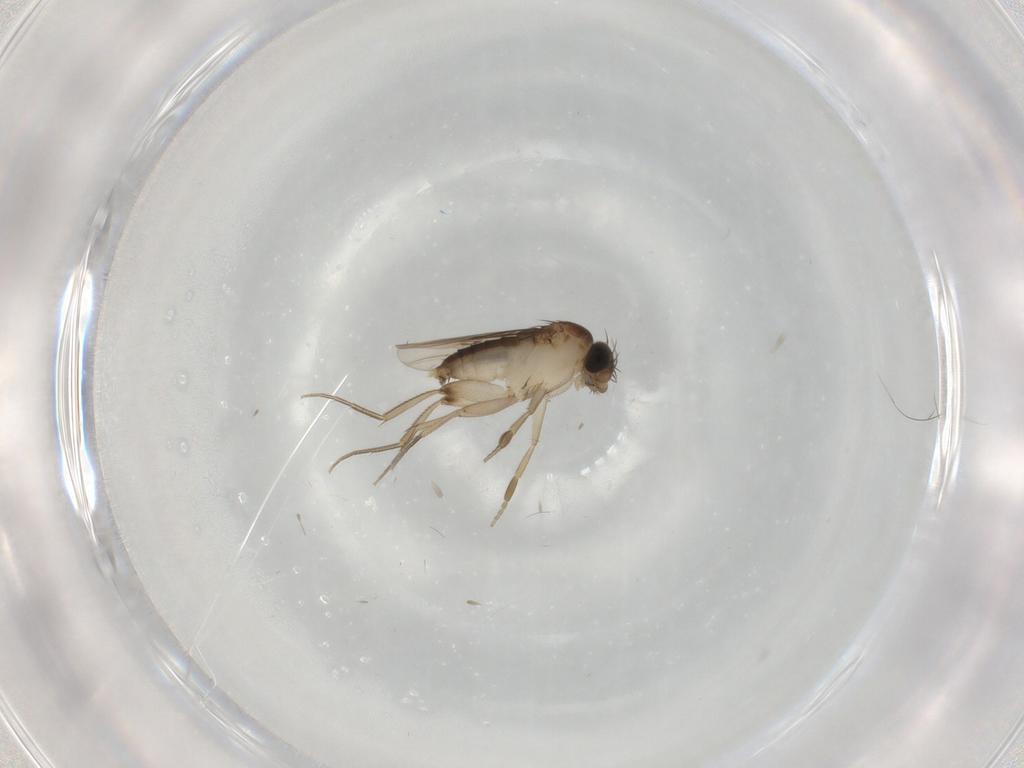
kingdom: Animalia
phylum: Arthropoda
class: Insecta
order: Diptera
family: Phoridae
